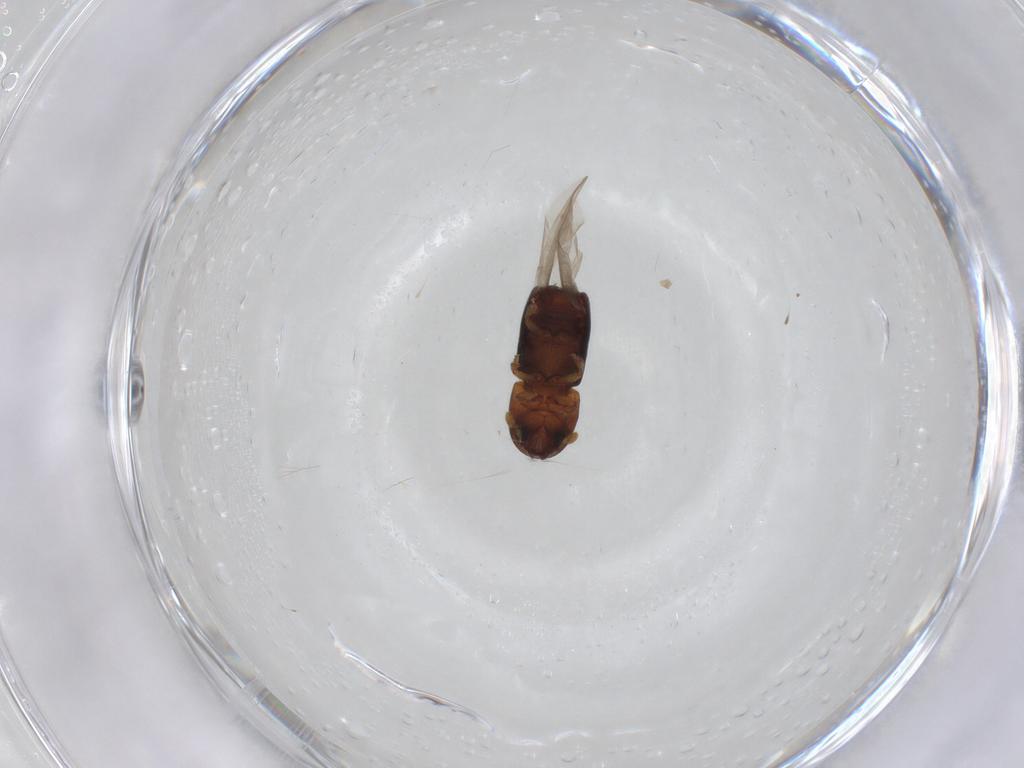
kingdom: Animalia
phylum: Arthropoda
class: Insecta
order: Coleoptera
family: Curculionidae
